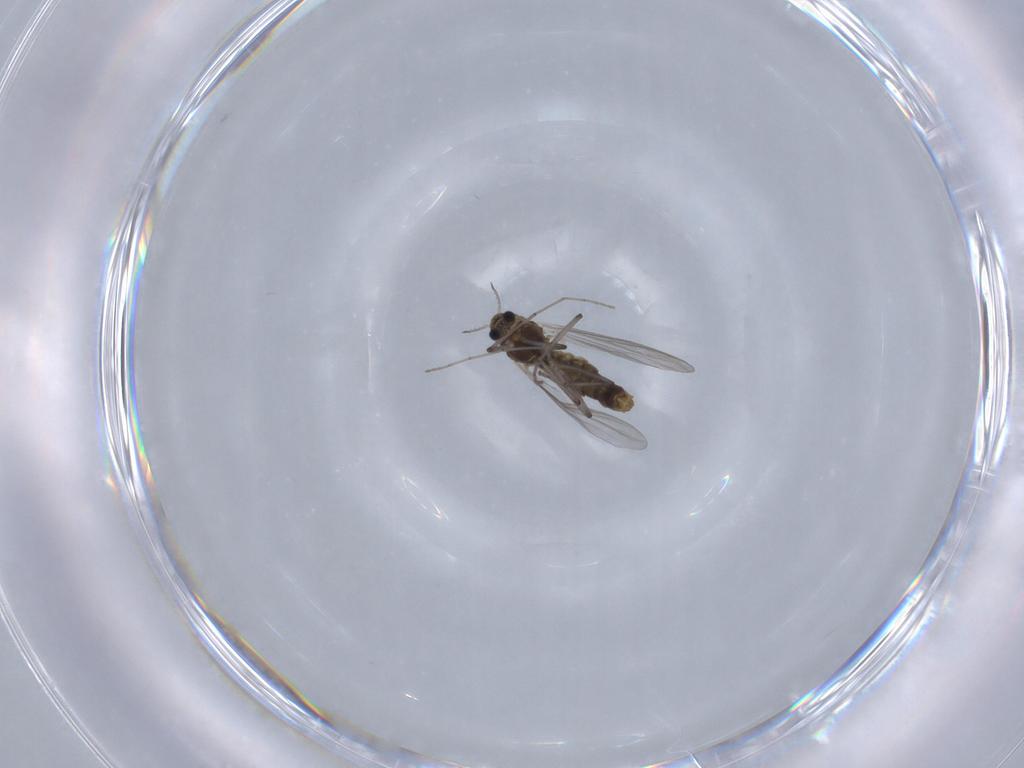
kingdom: Animalia
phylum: Arthropoda
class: Insecta
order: Diptera
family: Chironomidae
